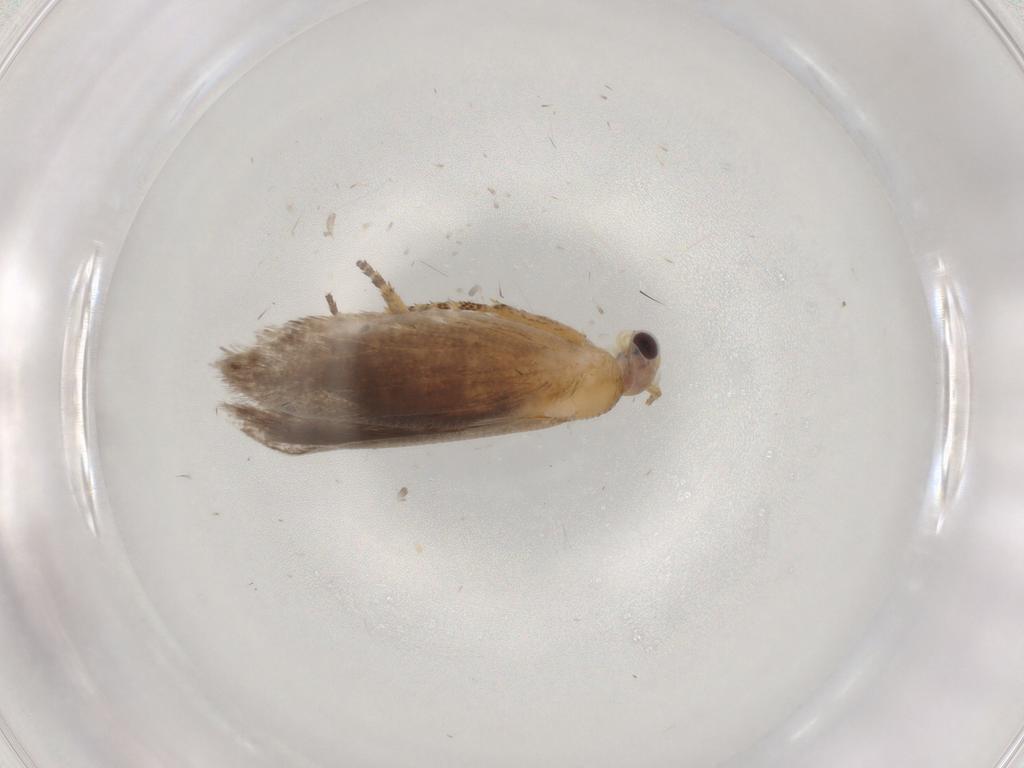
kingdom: Animalia
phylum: Arthropoda
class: Insecta
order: Lepidoptera
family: Plutellidae
